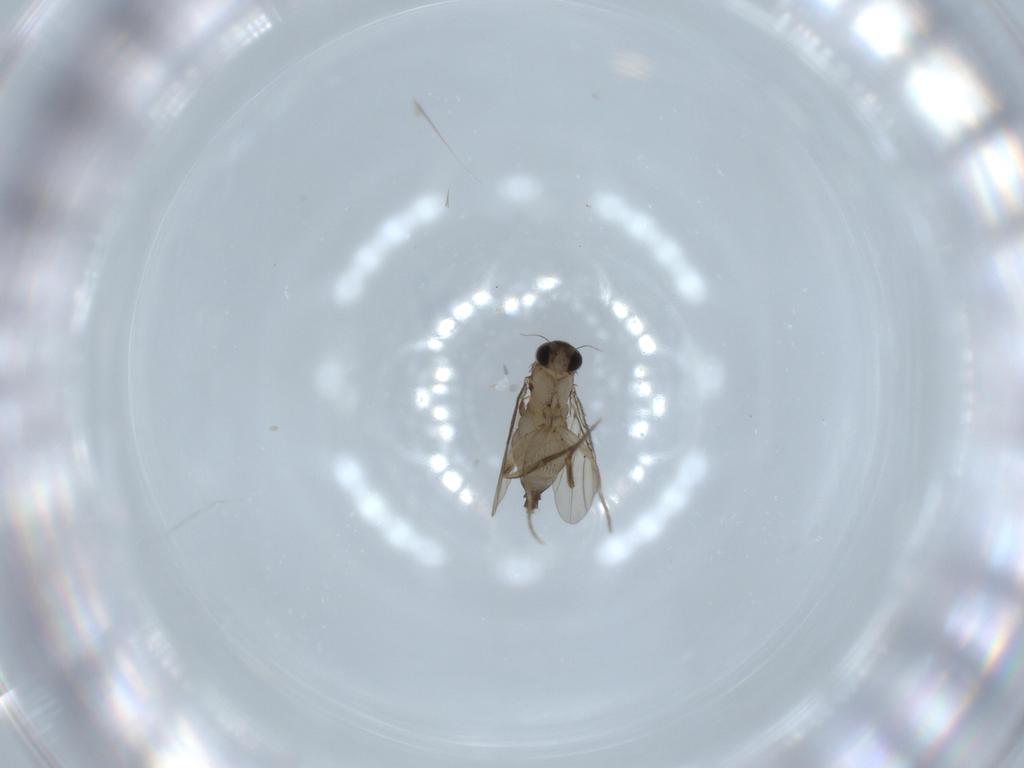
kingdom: Animalia
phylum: Arthropoda
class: Insecta
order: Diptera
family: Phoridae
